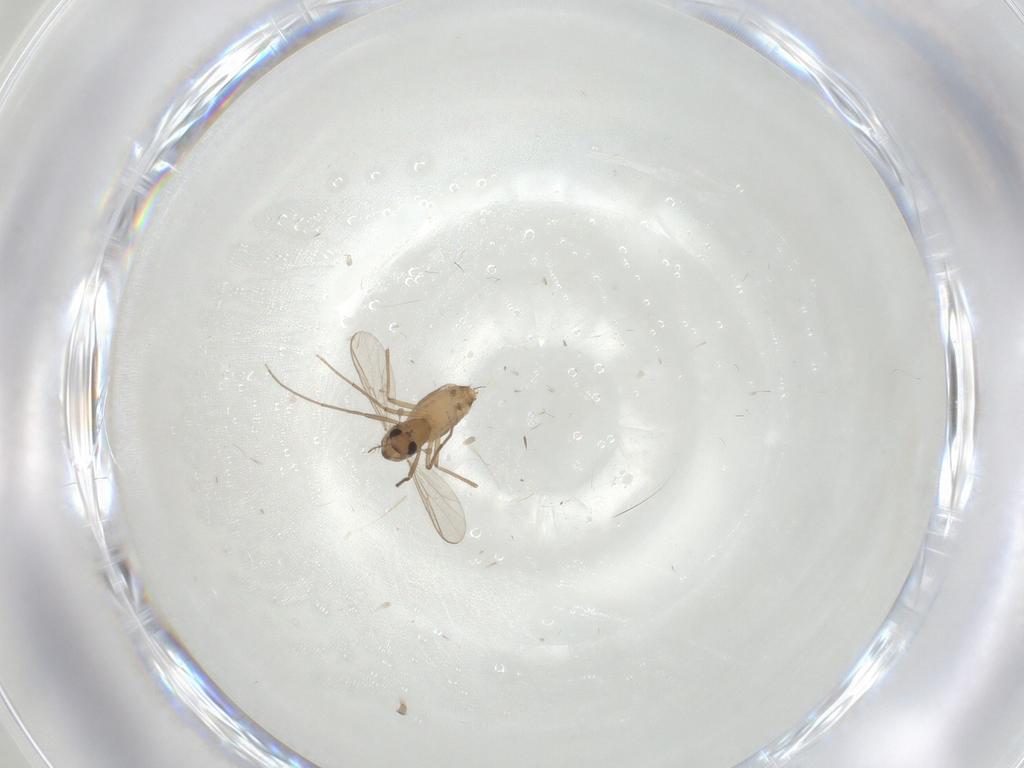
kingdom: Animalia
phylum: Arthropoda
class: Insecta
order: Diptera
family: Chironomidae
